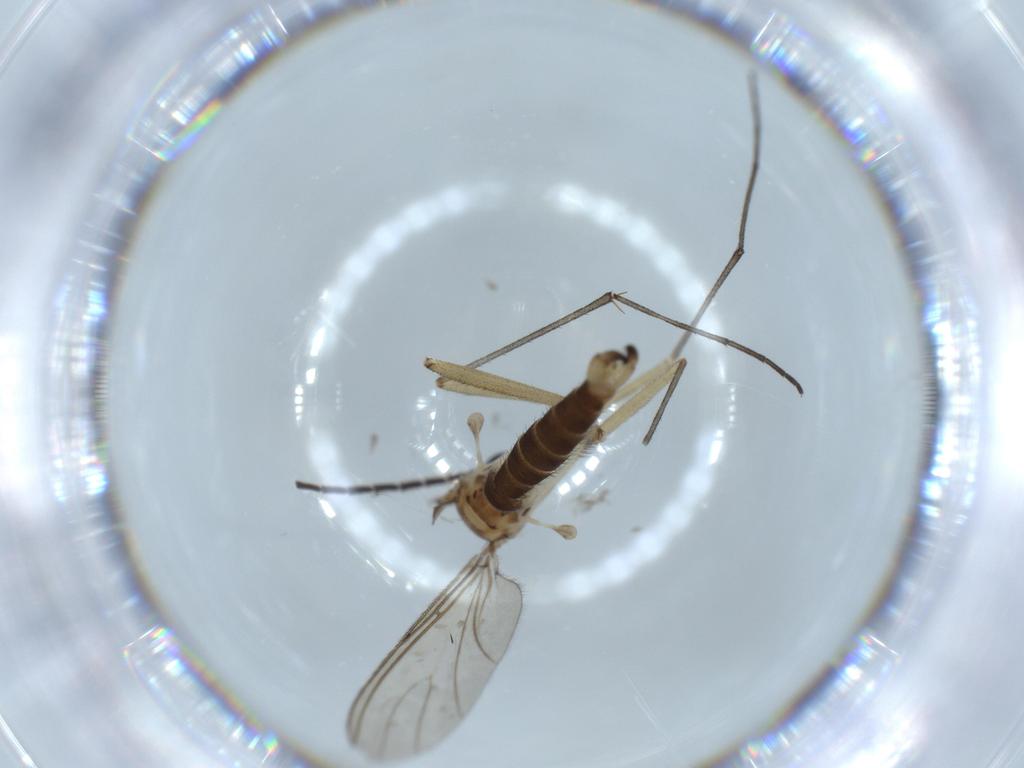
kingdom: Animalia
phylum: Arthropoda
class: Insecta
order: Diptera
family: Sciaridae
